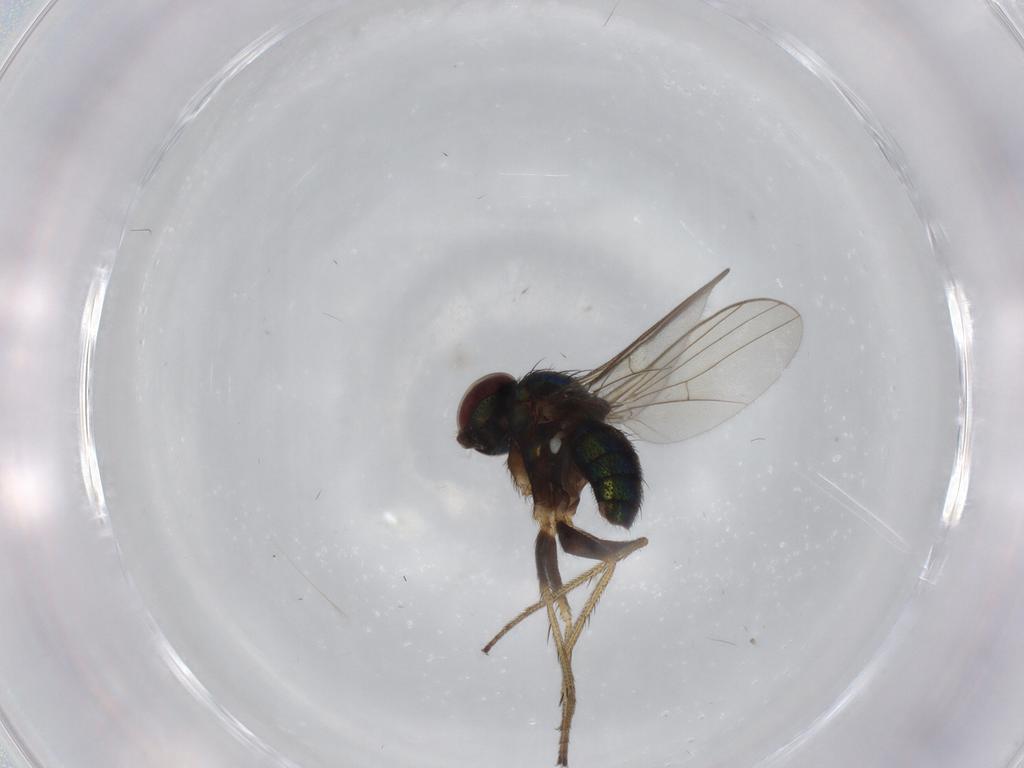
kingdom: Animalia
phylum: Arthropoda
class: Insecta
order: Diptera
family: Dolichopodidae
